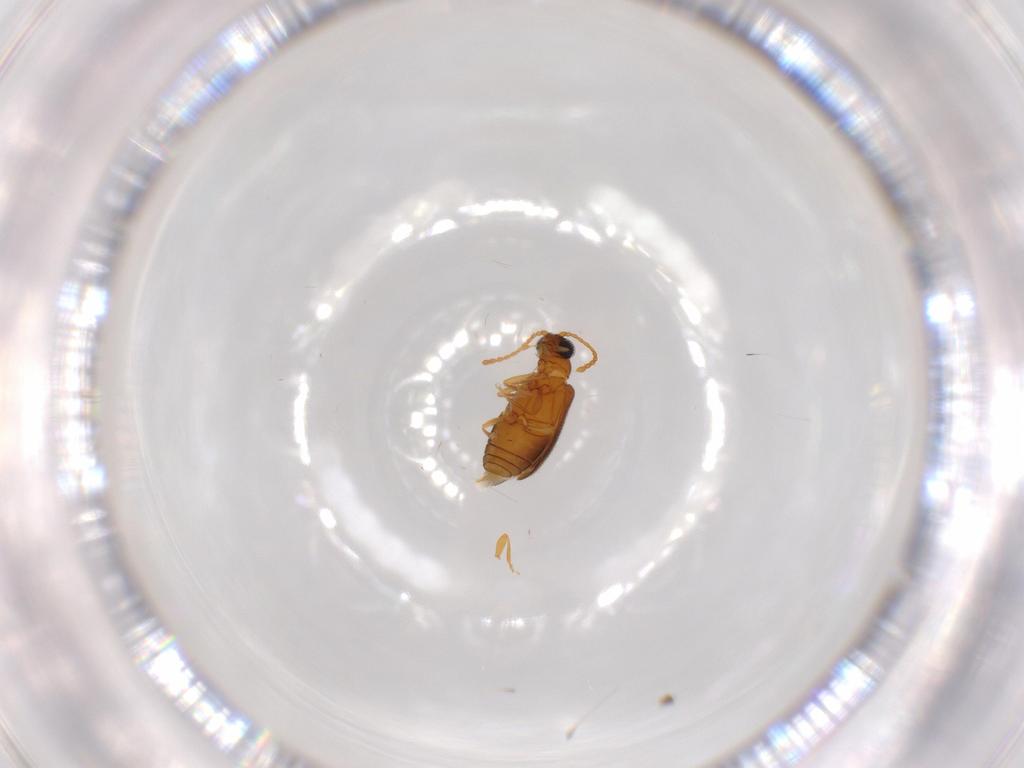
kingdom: Animalia
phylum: Arthropoda
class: Insecta
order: Coleoptera
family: Aderidae
